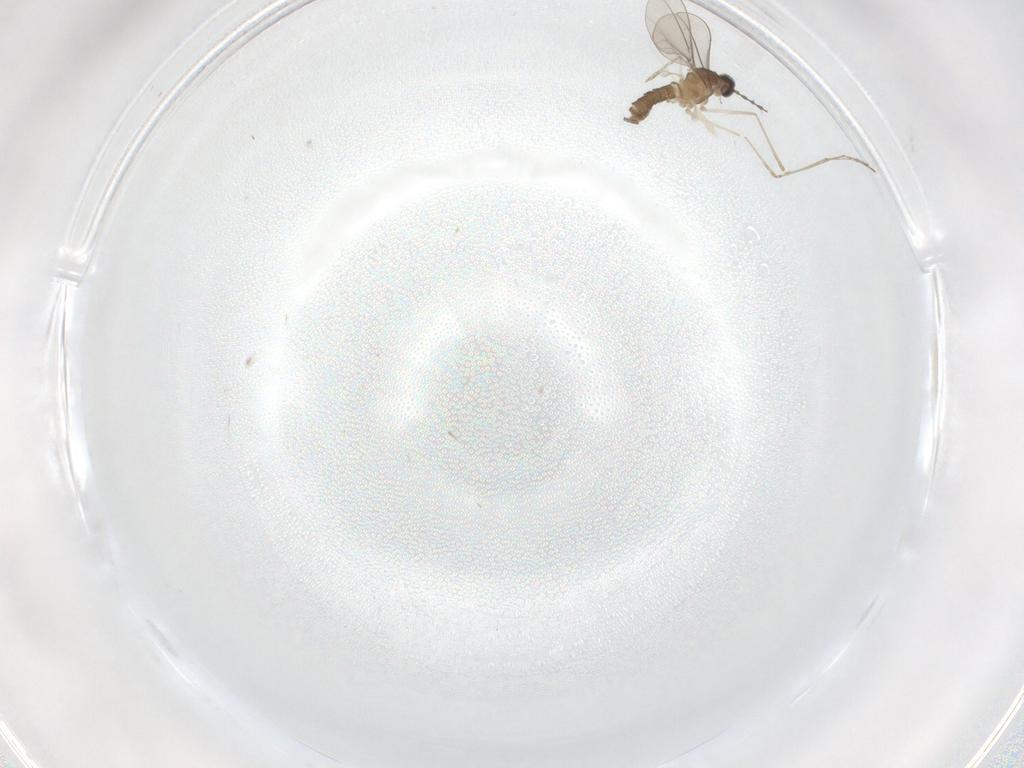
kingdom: Animalia
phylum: Arthropoda
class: Insecta
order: Diptera
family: Cecidomyiidae
